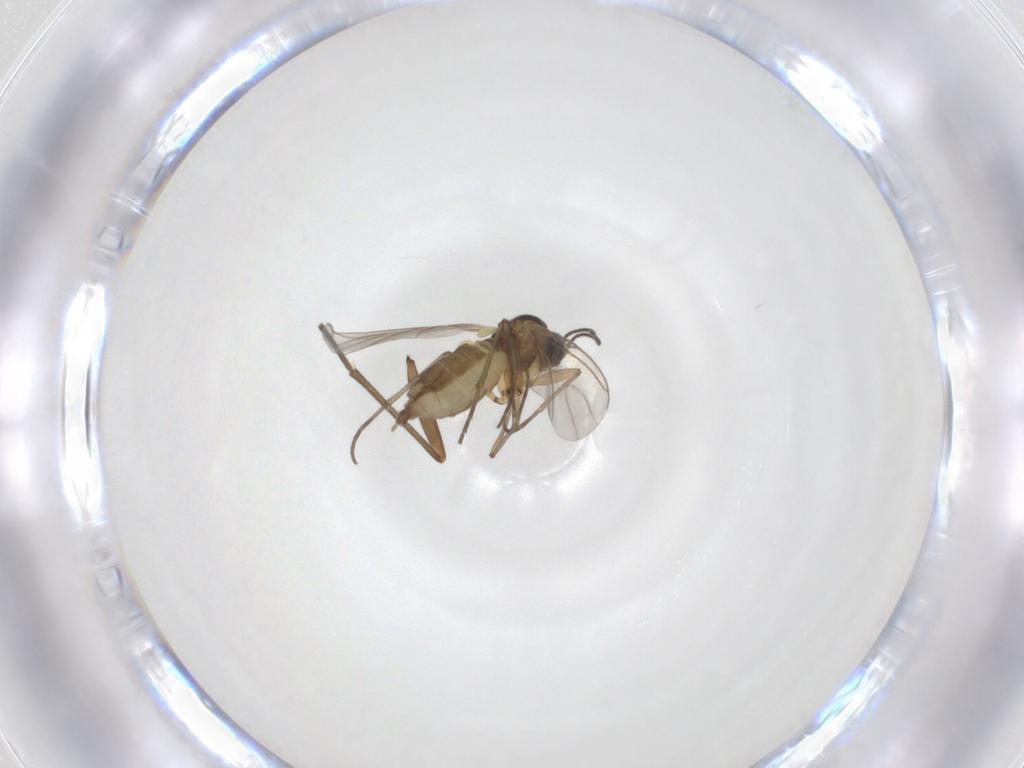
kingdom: Animalia
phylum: Arthropoda
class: Insecta
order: Diptera
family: Sciaridae
